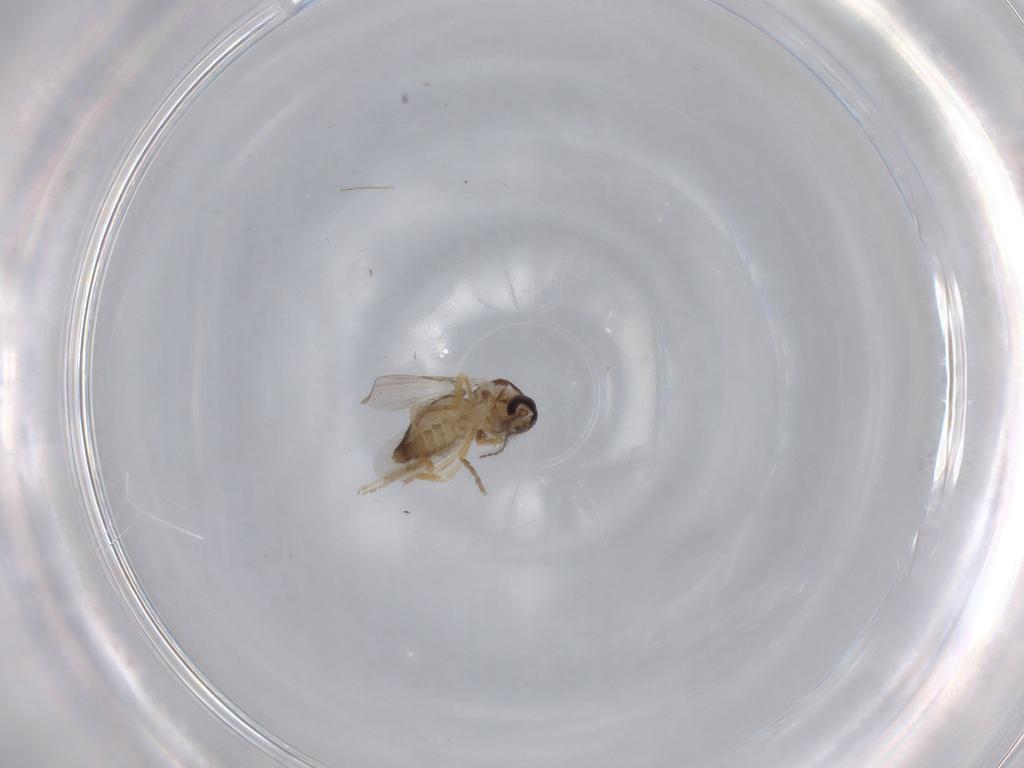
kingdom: Animalia
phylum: Arthropoda
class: Insecta
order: Diptera
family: Ceratopogonidae
